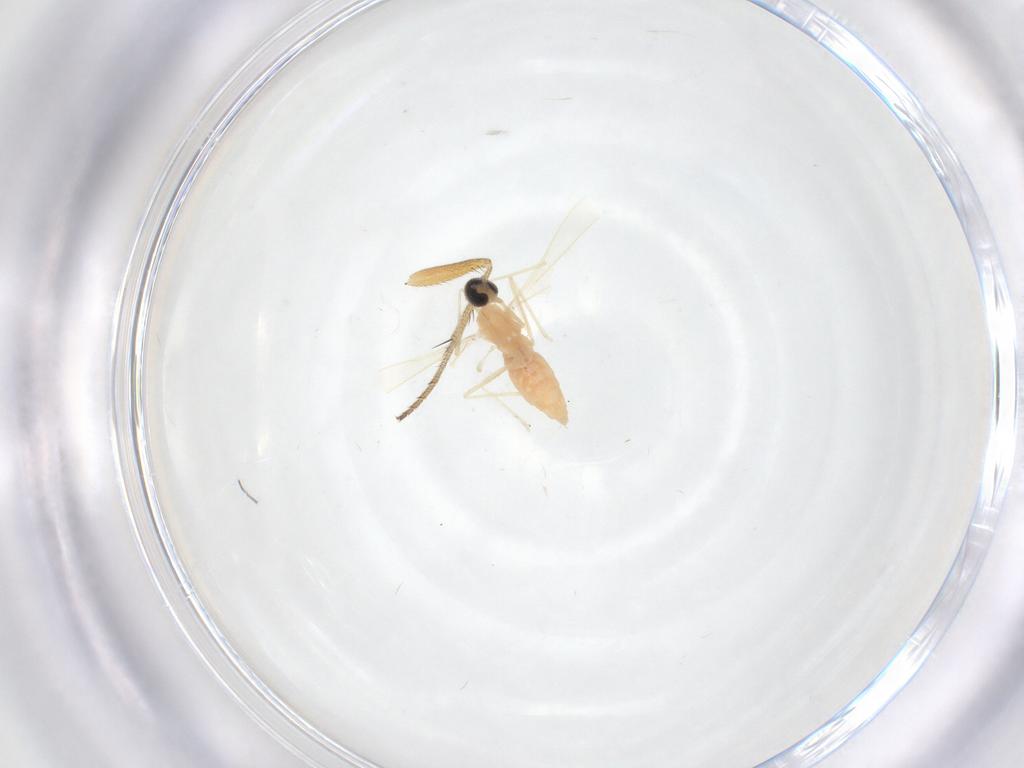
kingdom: Animalia
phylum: Arthropoda
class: Insecta
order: Diptera
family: Cecidomyiidae
